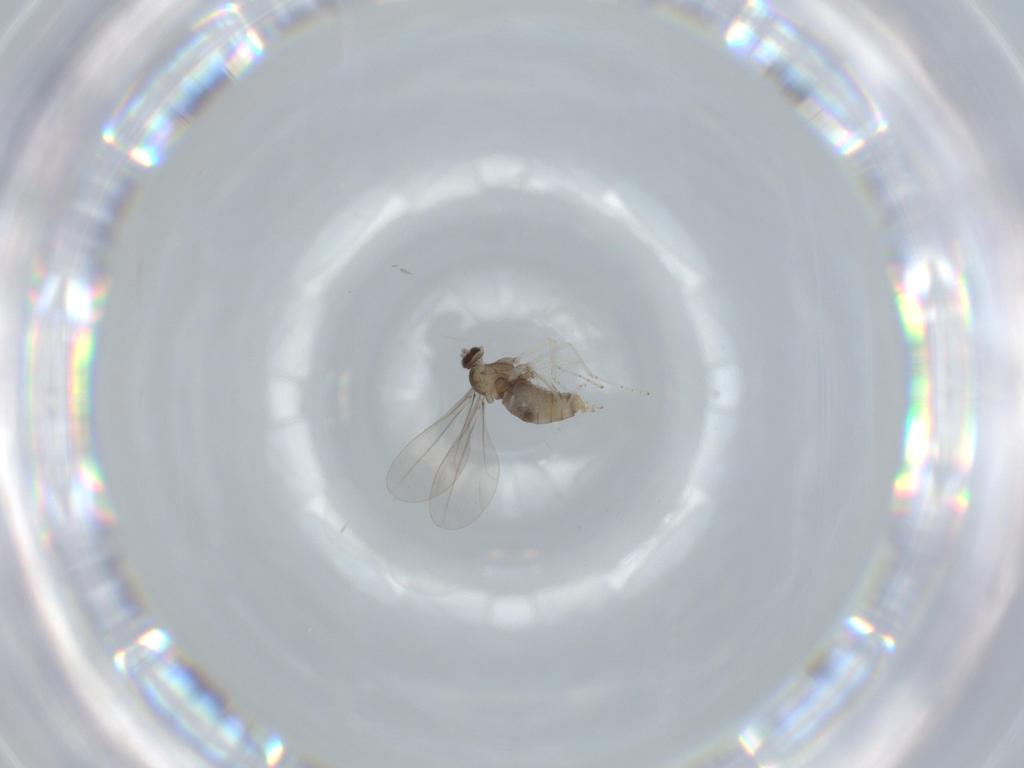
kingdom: Animalia
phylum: Arthropoda
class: Insecta
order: Diptera
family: Cecidomyiidae
